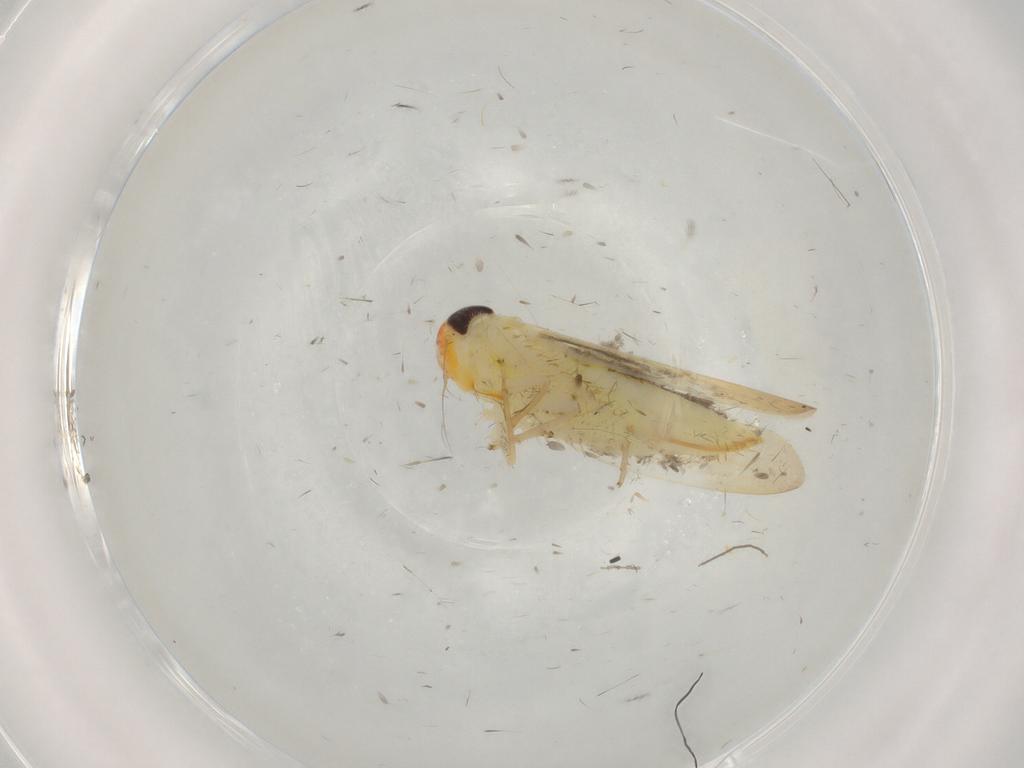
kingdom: Animalia
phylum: Arthropoda
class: Insecta
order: Hemiptera
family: Cicadellidae
